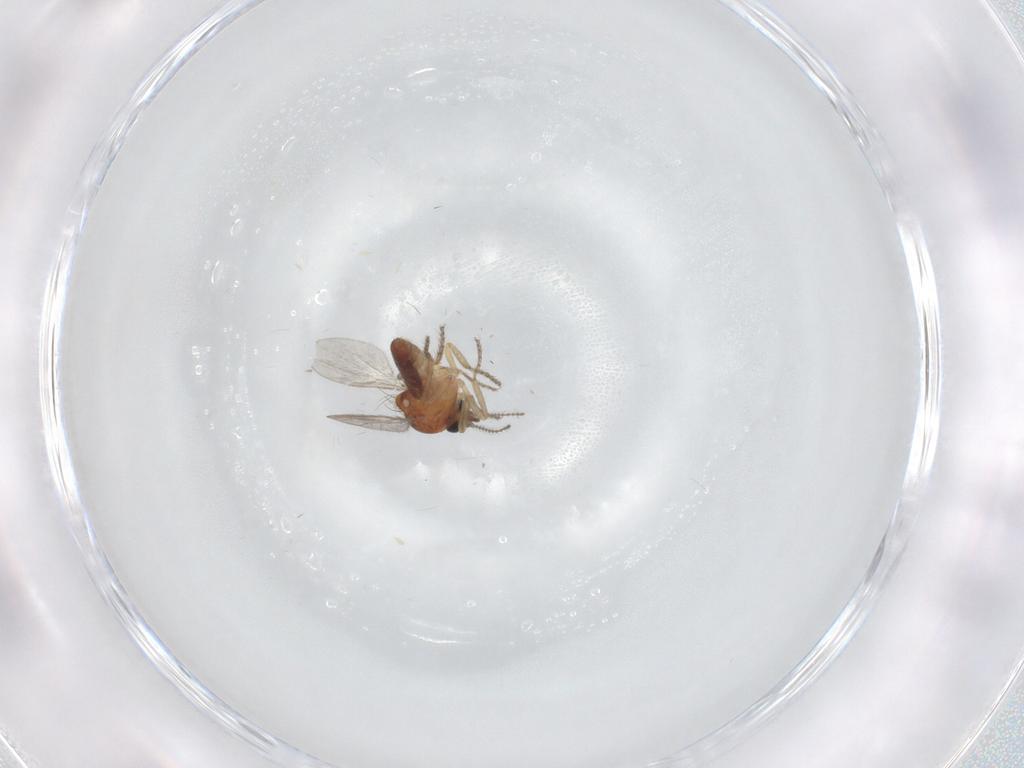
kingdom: Animalia
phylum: Arthropoda
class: Insecta
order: Diptera
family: Ceratopogonidae
